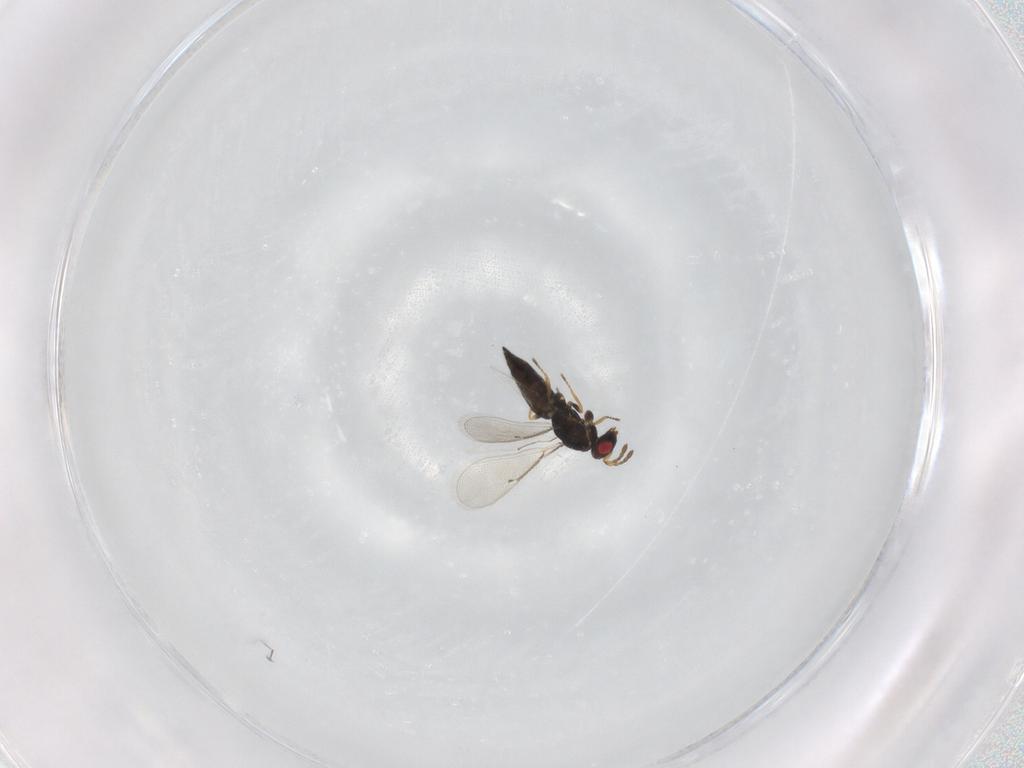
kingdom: Animalia
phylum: Arthropoda
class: Insecta
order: Hymenoptera
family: Eulophidae
